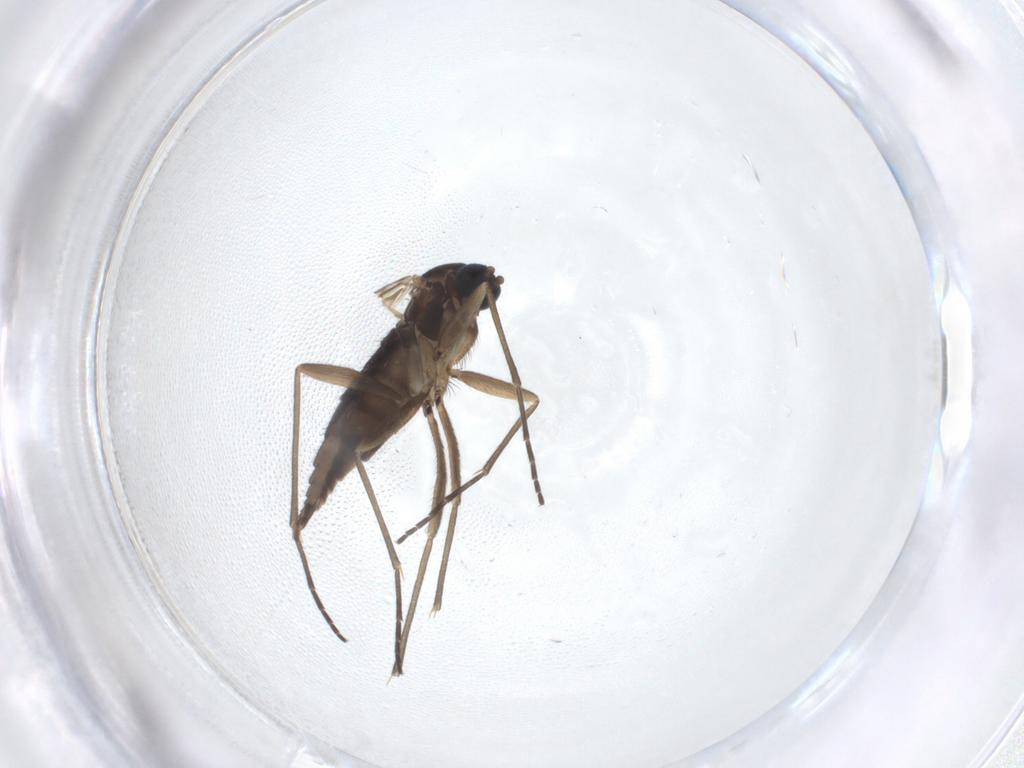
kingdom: Animalia
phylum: Arthropoda
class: Insecta
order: Diptera
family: Sciaridae
